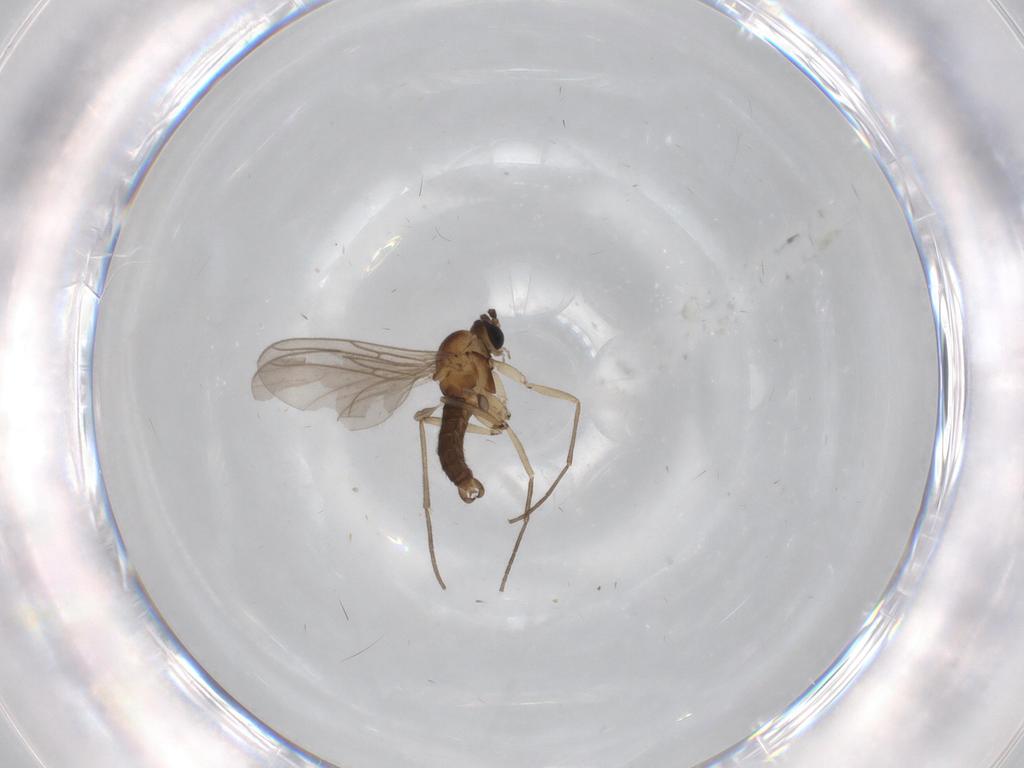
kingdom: Animalia
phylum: Arthropoda
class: Insecta
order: Diptera
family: Sciaridae
